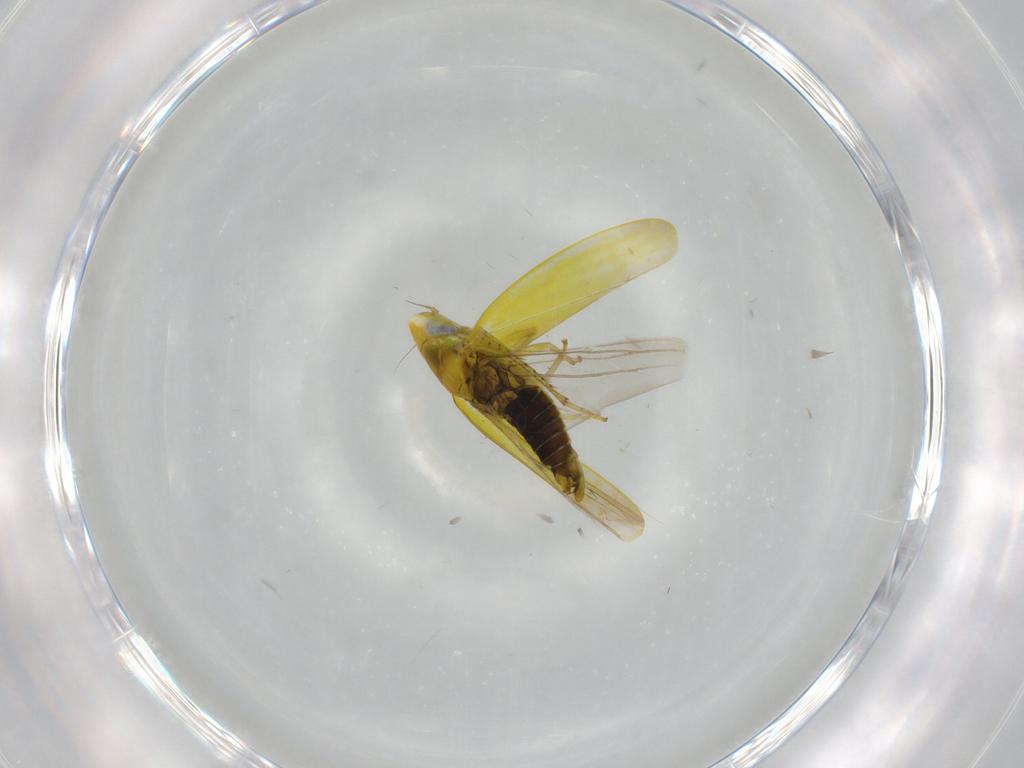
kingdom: Animalia
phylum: Arthropoda
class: Insecta
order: Hemiptera
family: Cicadellidae
